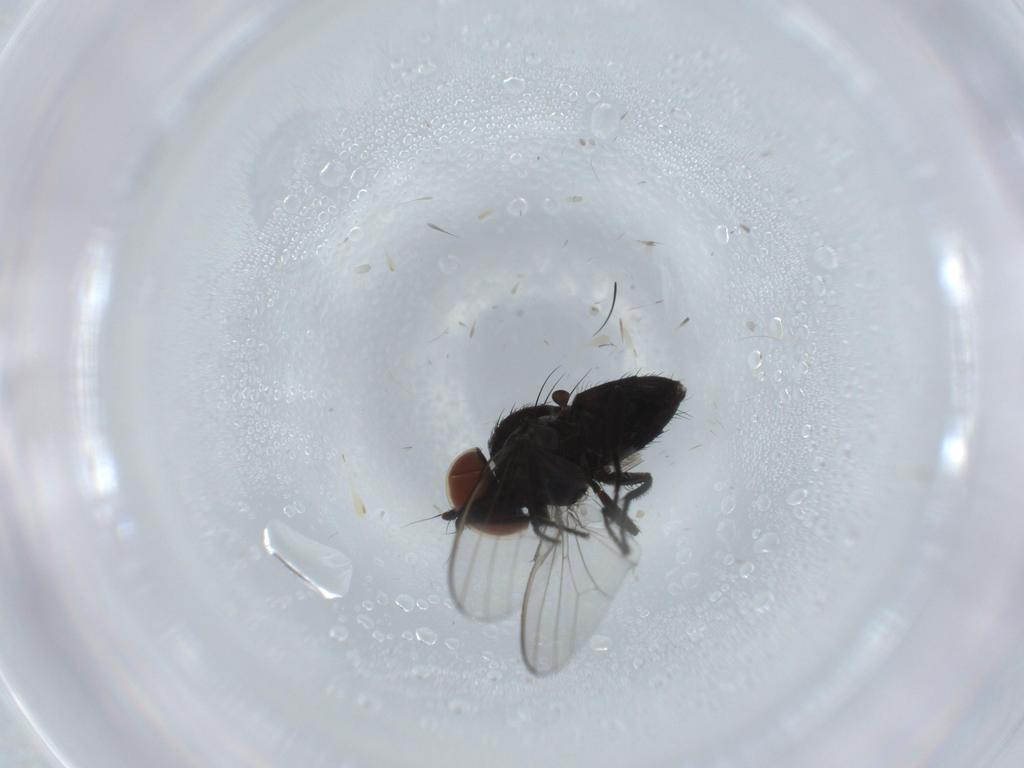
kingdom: Animalia
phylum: Arthropoda
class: Insecta
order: Diptera
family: Milichiidae
